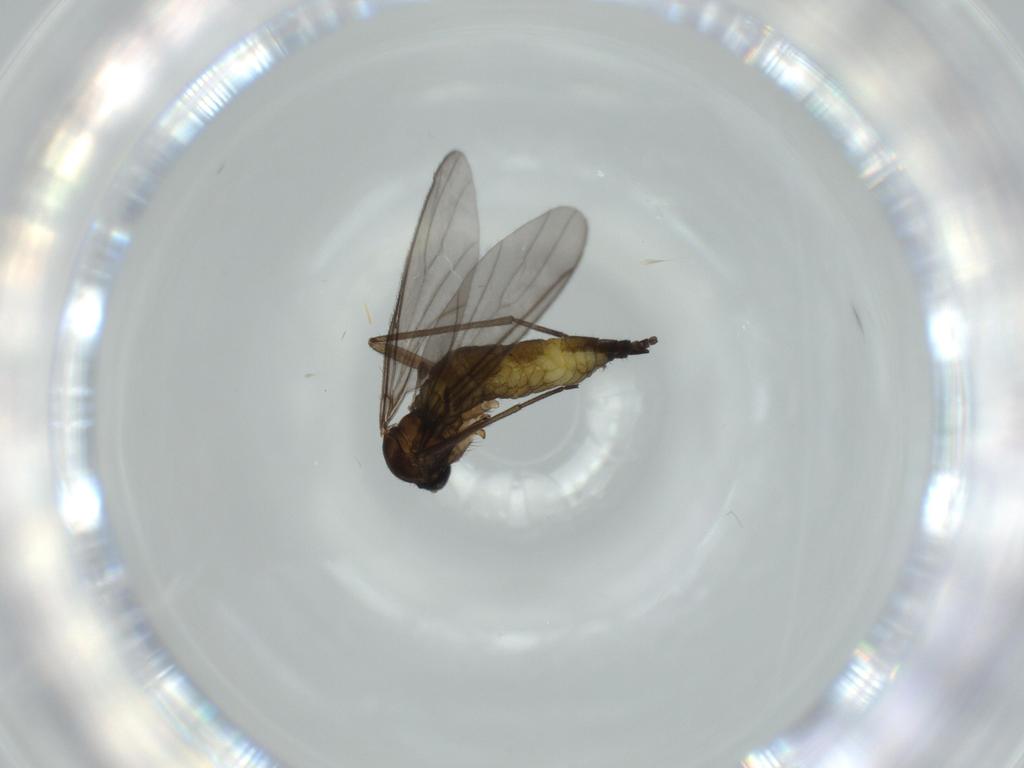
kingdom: Animalia
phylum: Arthropoda
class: Insecta
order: Diptera
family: Sciaridae
